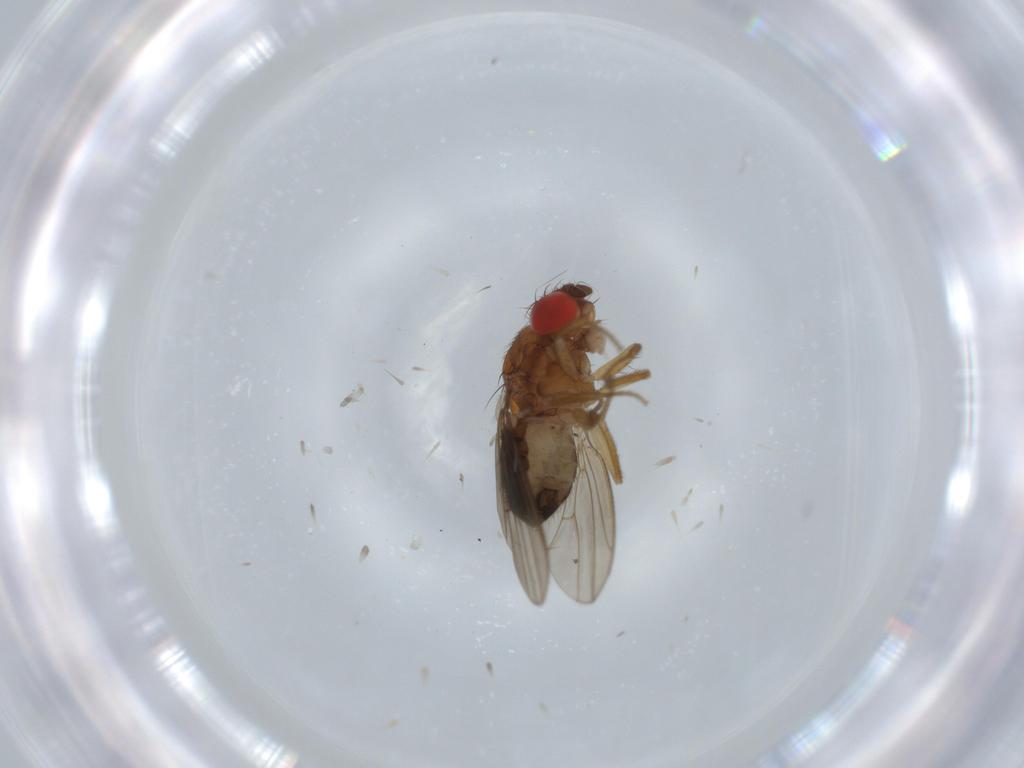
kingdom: Animalia
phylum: Arthropoda
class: Insecta
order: Diptera
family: Drosophilidae
